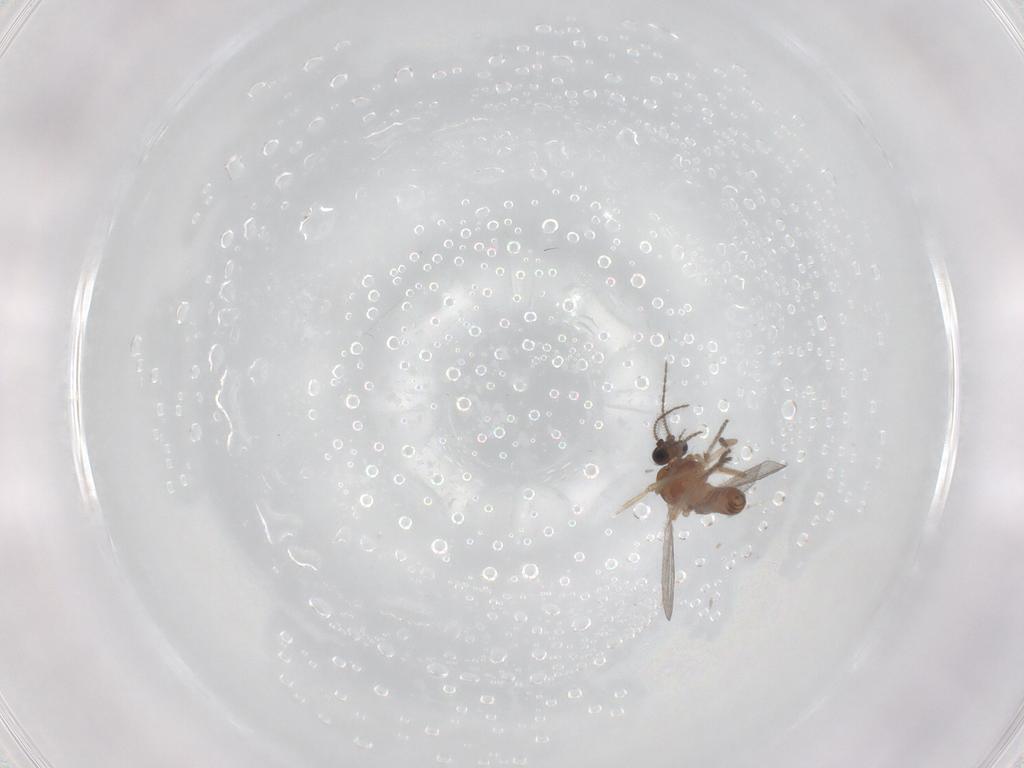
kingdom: Animalia
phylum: Arthropoda
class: Insecta
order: Diptera
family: Ceratopogonidae
